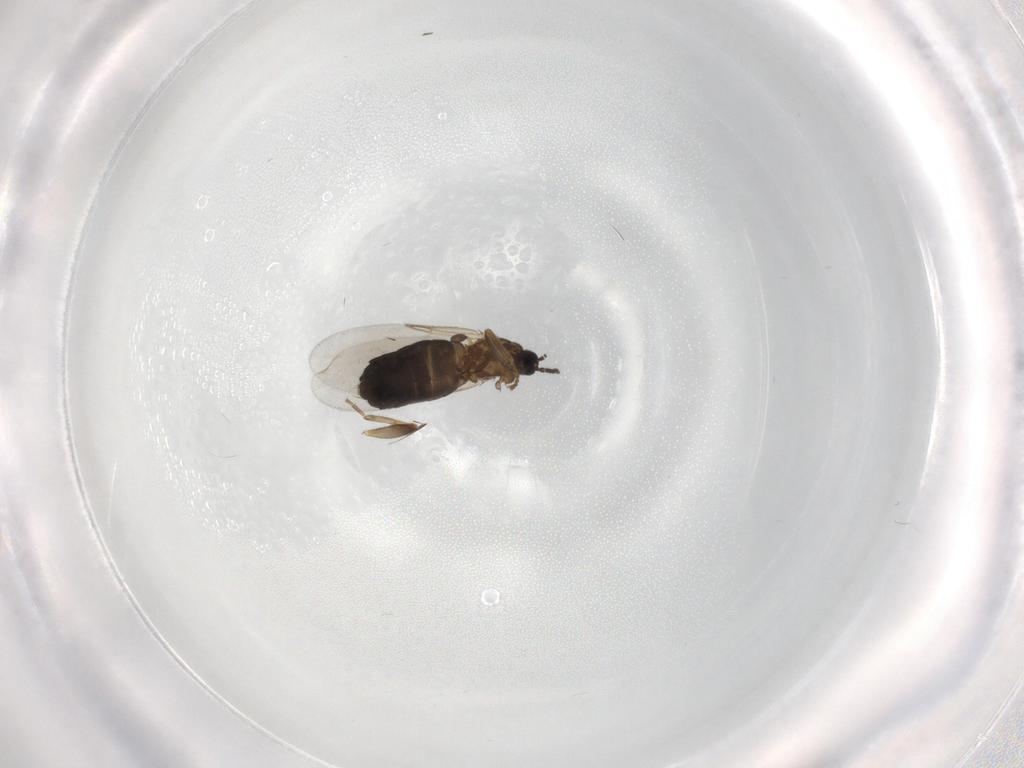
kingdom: Animalia
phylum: Arthropoda
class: Insecta
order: Diptera
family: Scatopsidae
